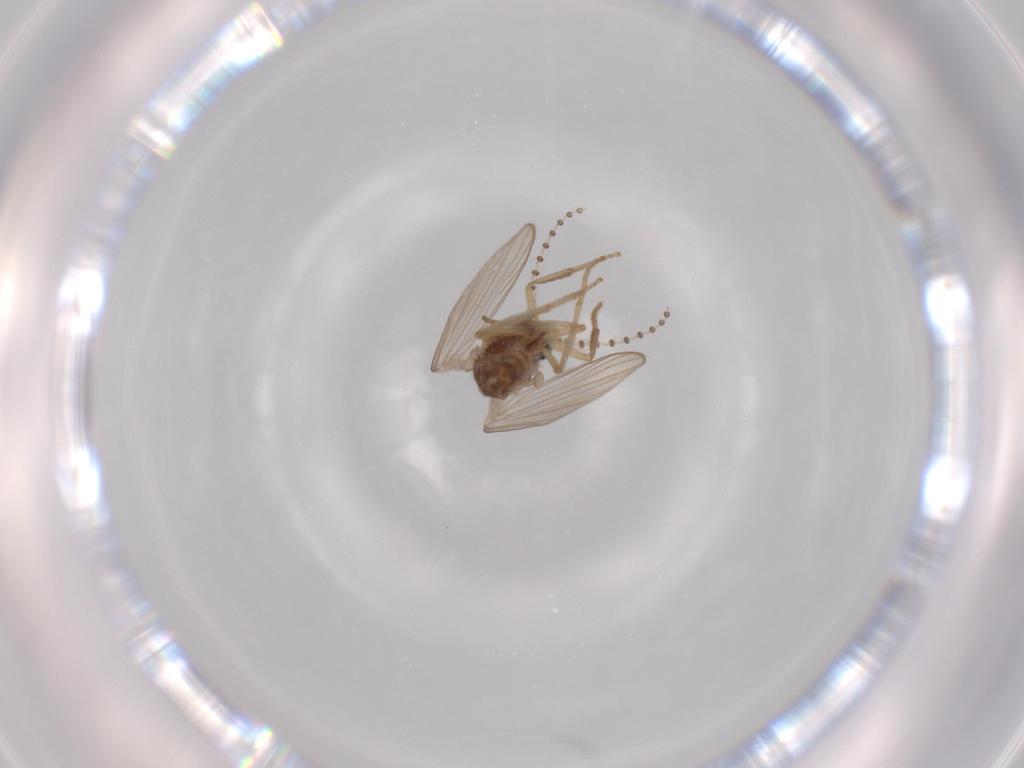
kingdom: Animalia
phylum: Arthropoda
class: Insecta
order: Diptera
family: Psychodidae
